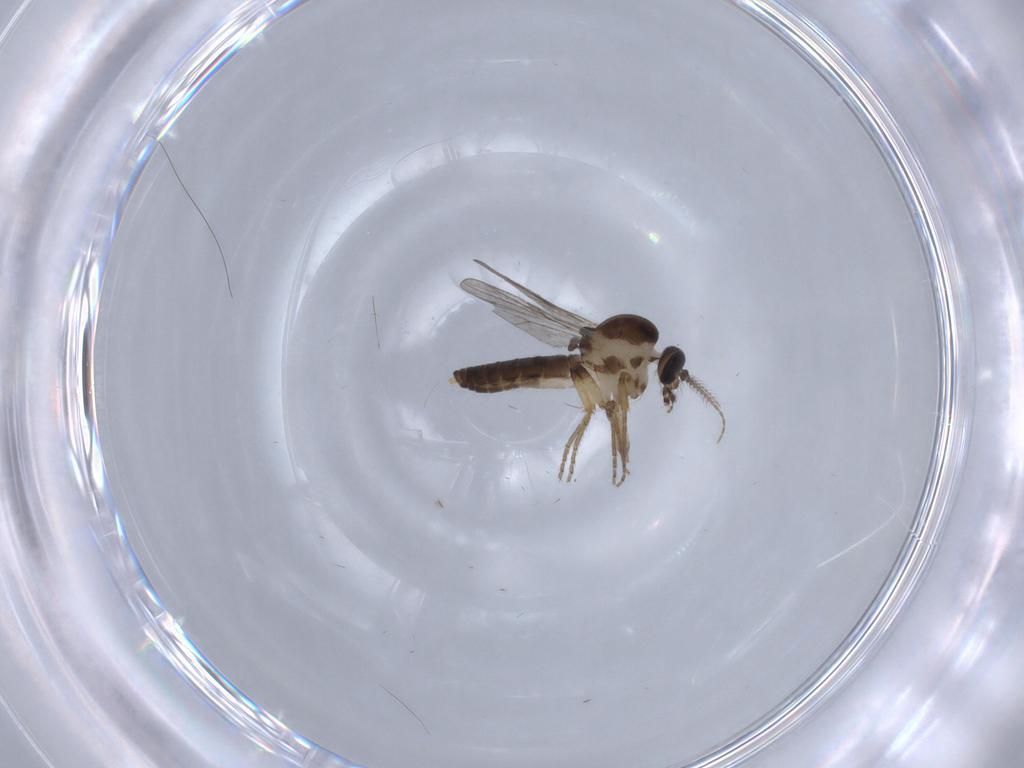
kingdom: Animalia
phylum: Arthropoda
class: Insecta
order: Diptera
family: Ceratopogonidae
